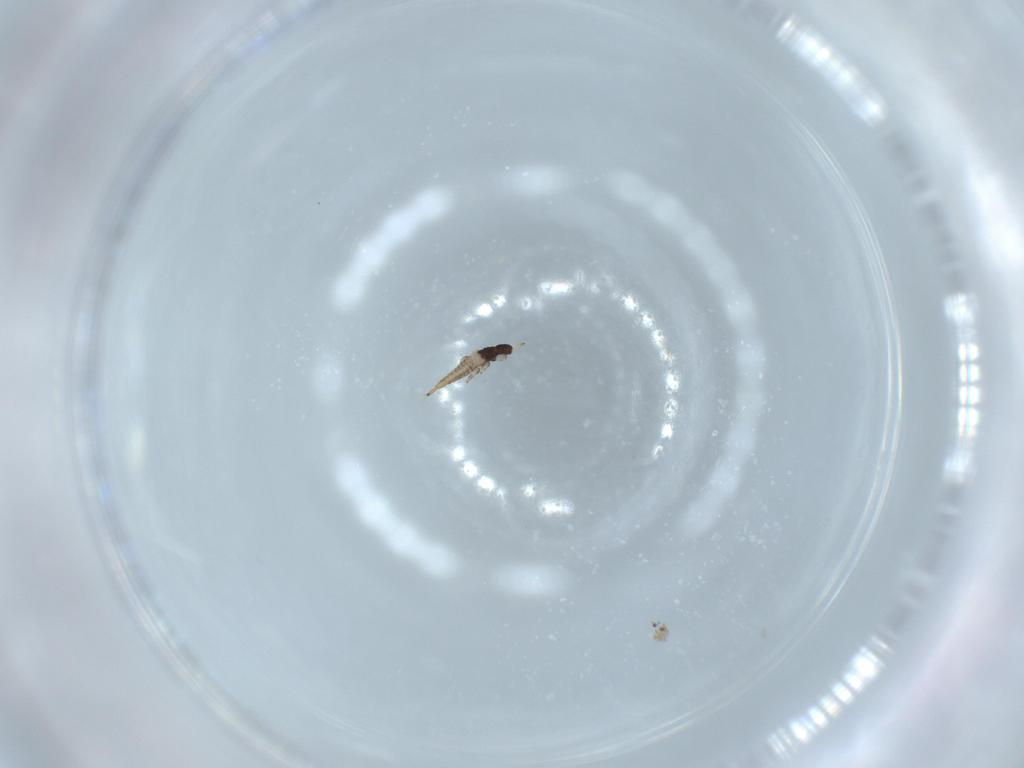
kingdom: Animalia
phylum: Arthropoda
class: Insecta
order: Thysanoptera
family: Phlaeothripidae
